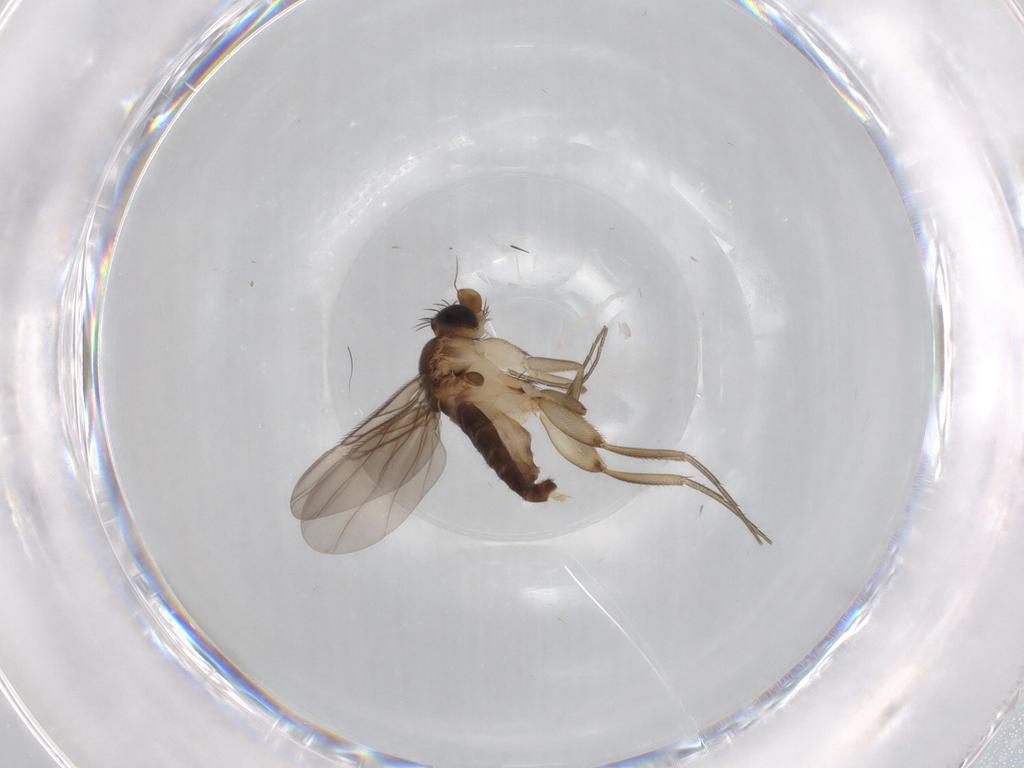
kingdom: Animalia
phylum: Arthropoda
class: Insecta
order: Diptera
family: Phoridae
